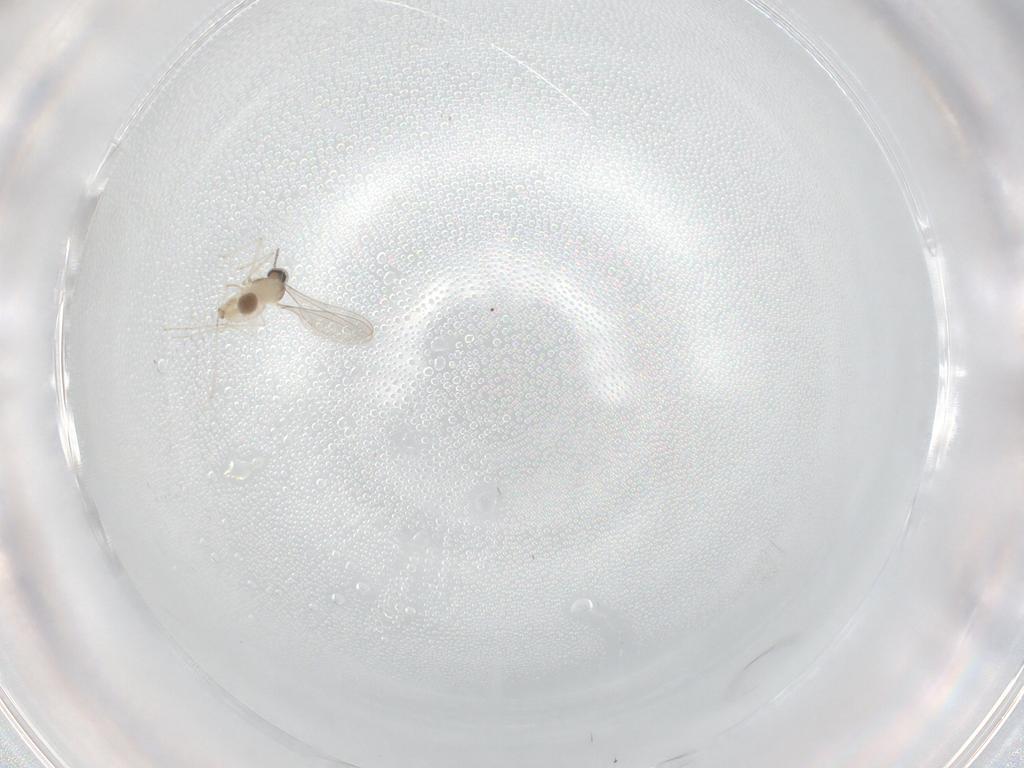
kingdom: Animalia
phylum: Arthropoda
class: Insecta
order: Diptera
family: Cecidomyiidae
